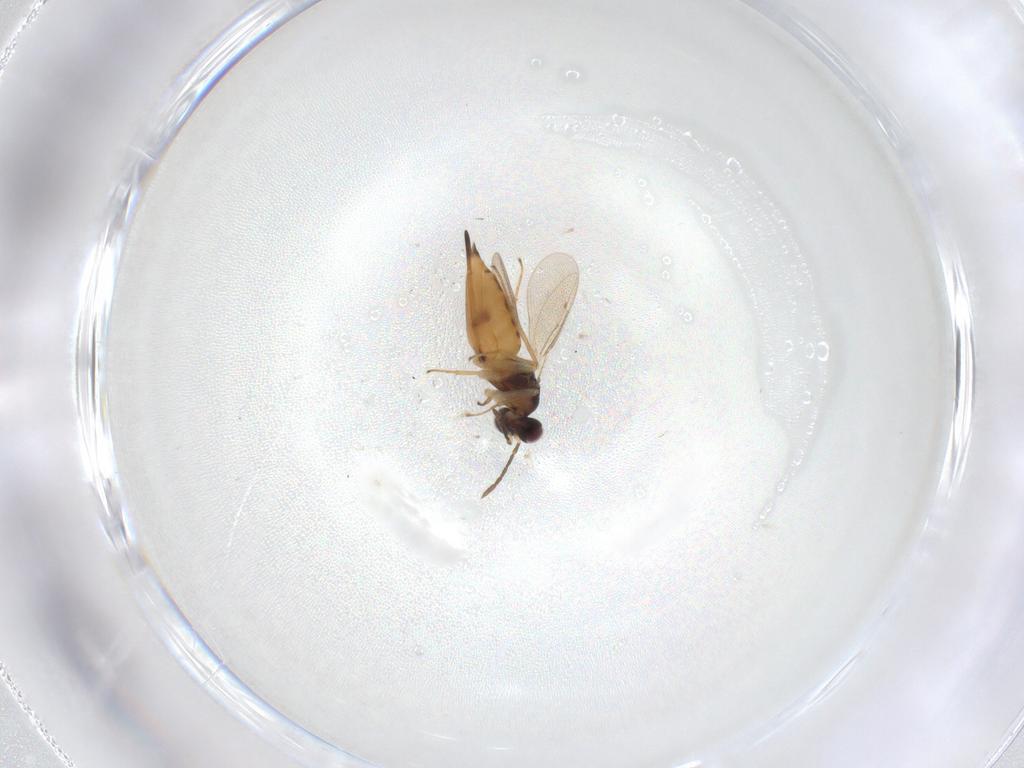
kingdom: Animalia
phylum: Arthropoda
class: Insecta
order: Hymenoptera
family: Eulophidae
